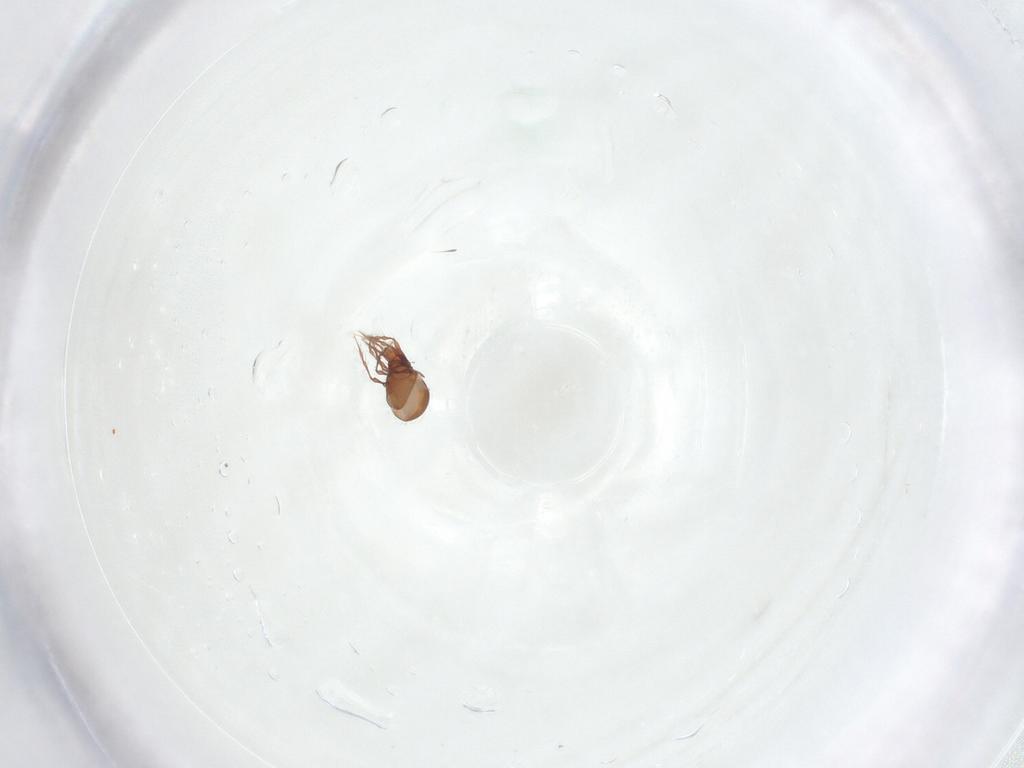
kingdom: Animalia
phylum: Arthropoda
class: Arachnida
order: Sarcoptiformes
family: Oppiidae
